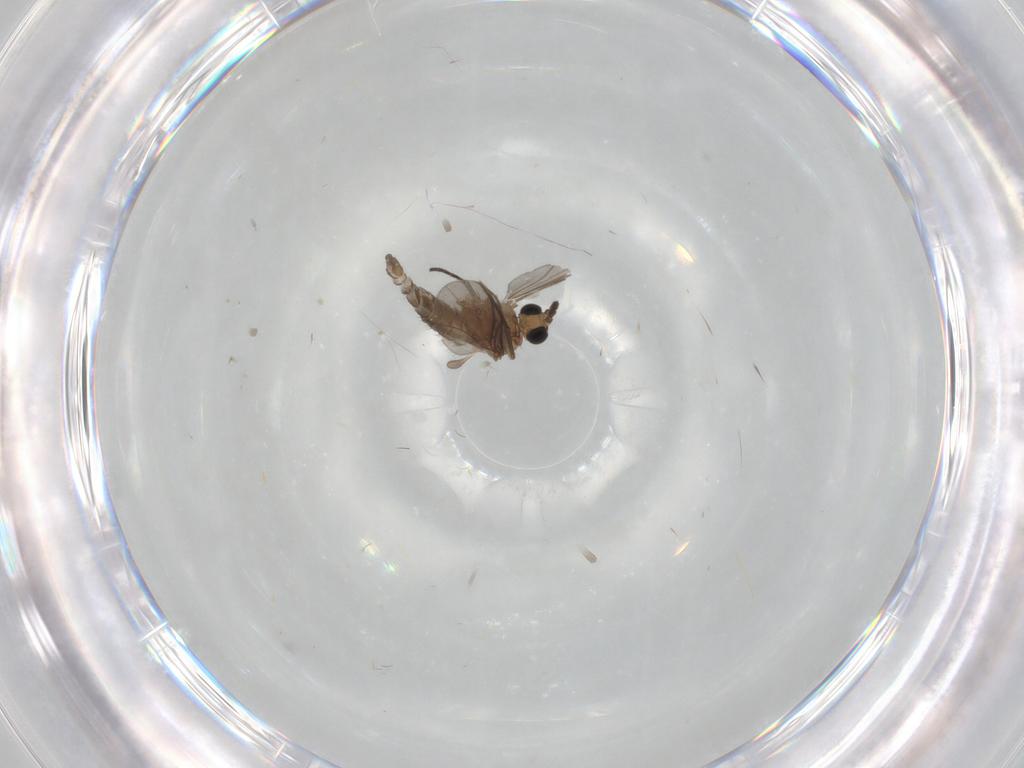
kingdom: Animalia
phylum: Arthropoda
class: Insecta
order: Diptera
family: Sciaridae
